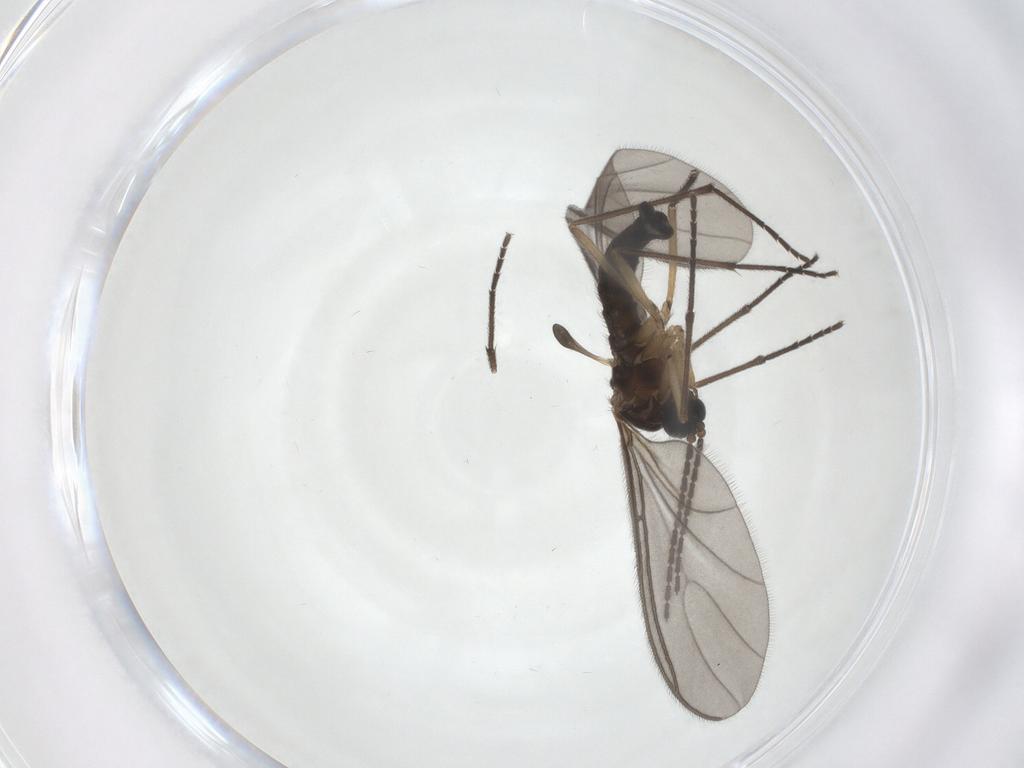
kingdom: Animalia
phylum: Arthropoda
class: Insecta
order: Diptera
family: Sciaridae
